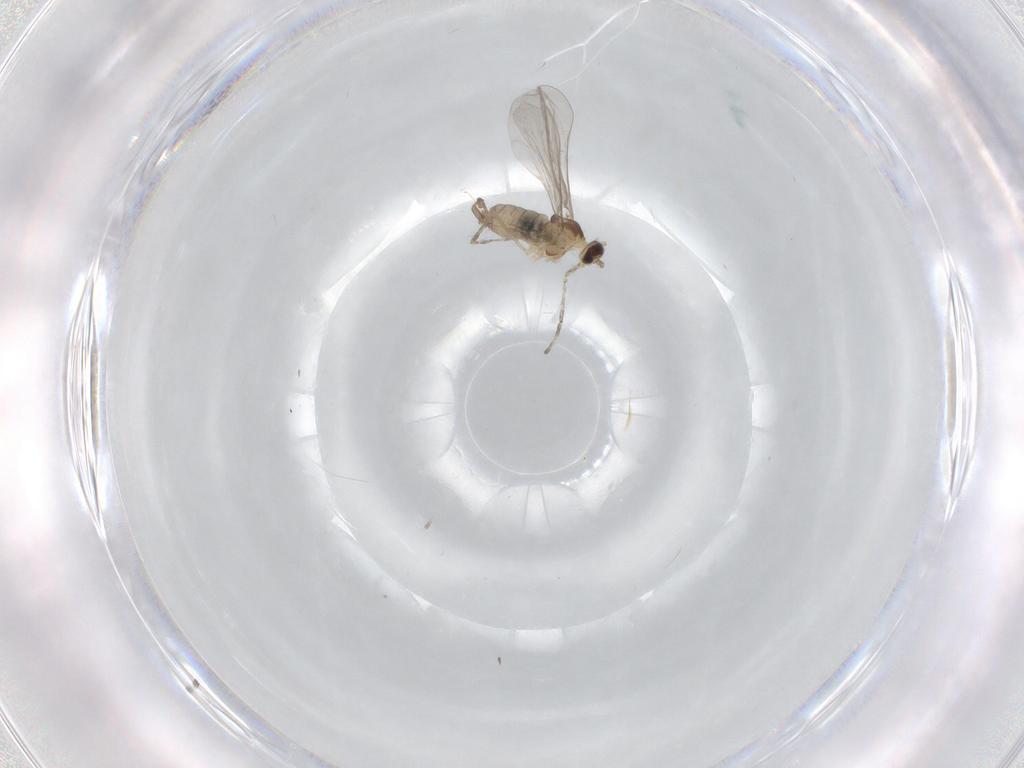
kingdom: Animalia
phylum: Arthropoda
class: Insecta
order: Diptera
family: Cecidomyiidae
